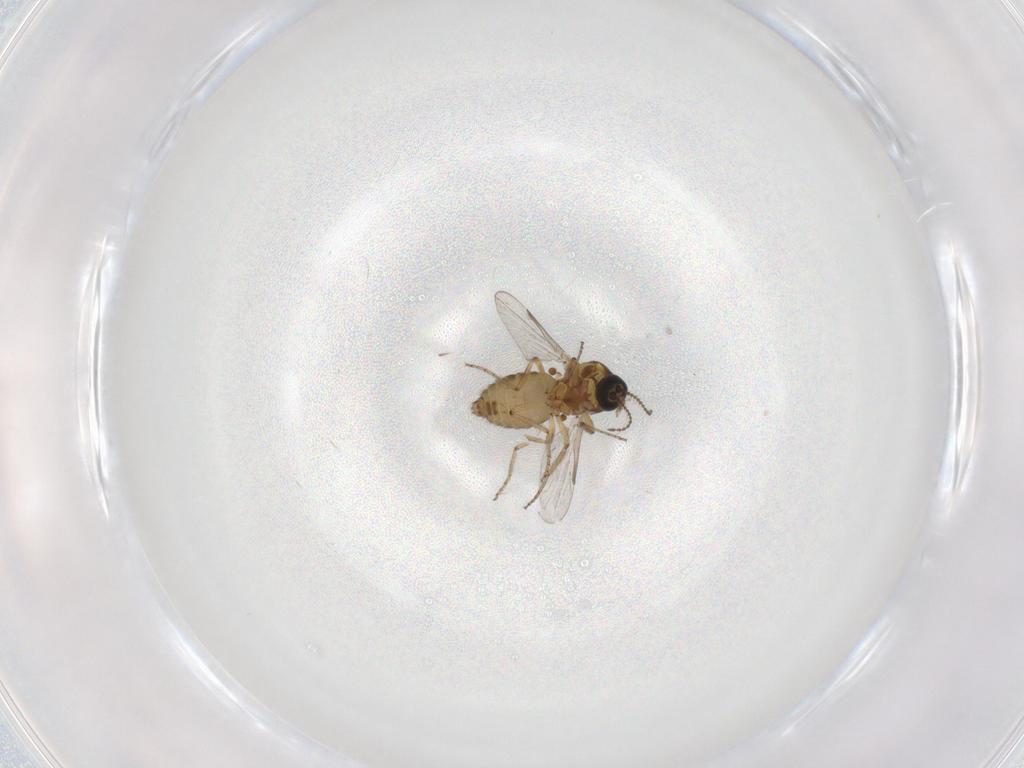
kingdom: Animalia
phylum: Arthropoda
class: Insecta
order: Diptera
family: Ceratopogonidae
